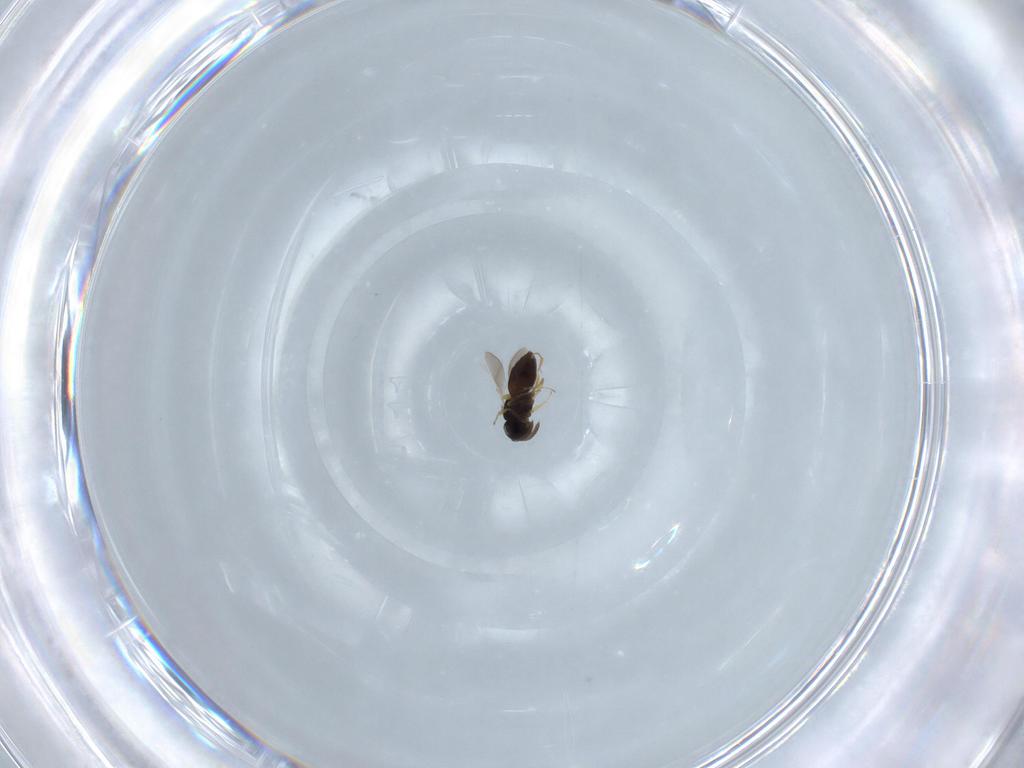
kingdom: Animalia
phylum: Arthropoda
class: Insecta
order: Hymenoptera
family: Scelionidae
